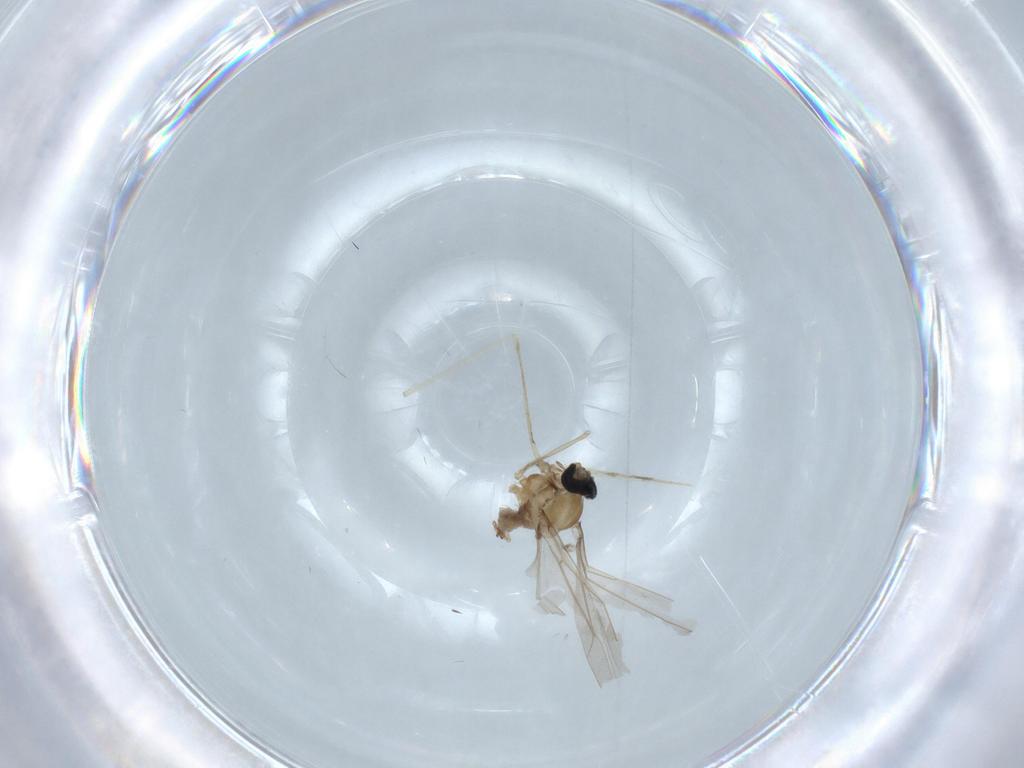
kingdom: Animalia
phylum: Arthropoda
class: Insecta
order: Diptera
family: Cecidomyiidae
